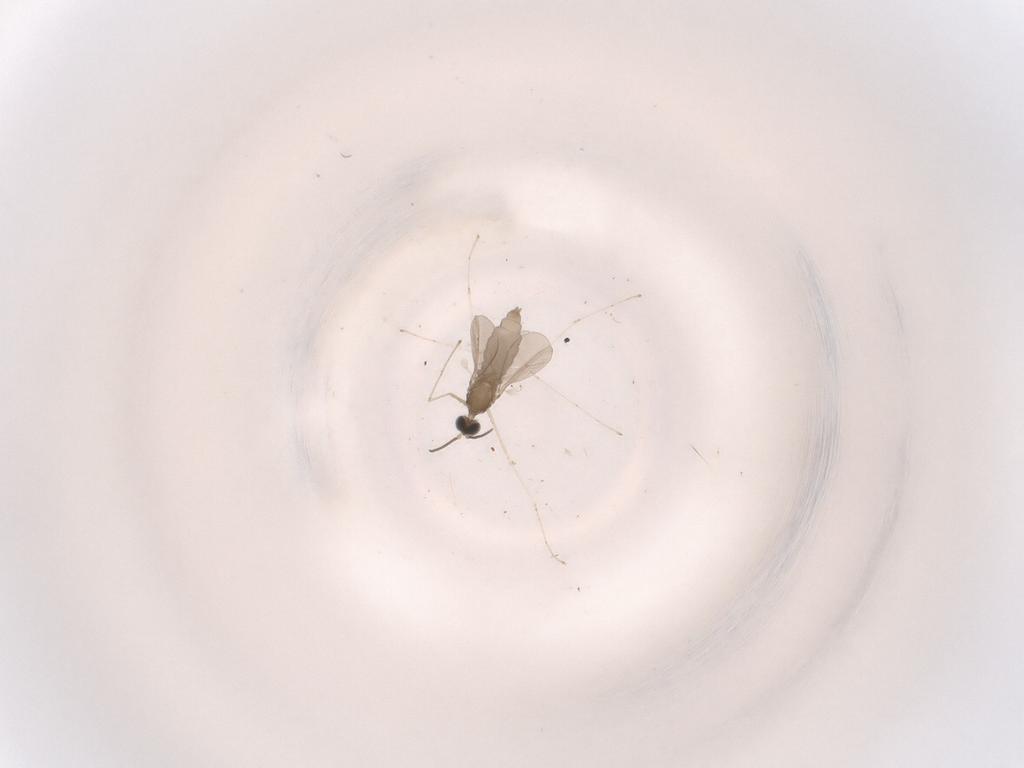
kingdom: Animalia
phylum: Arthropoda
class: Insecta
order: Diptera
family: Cecidomyiidae
